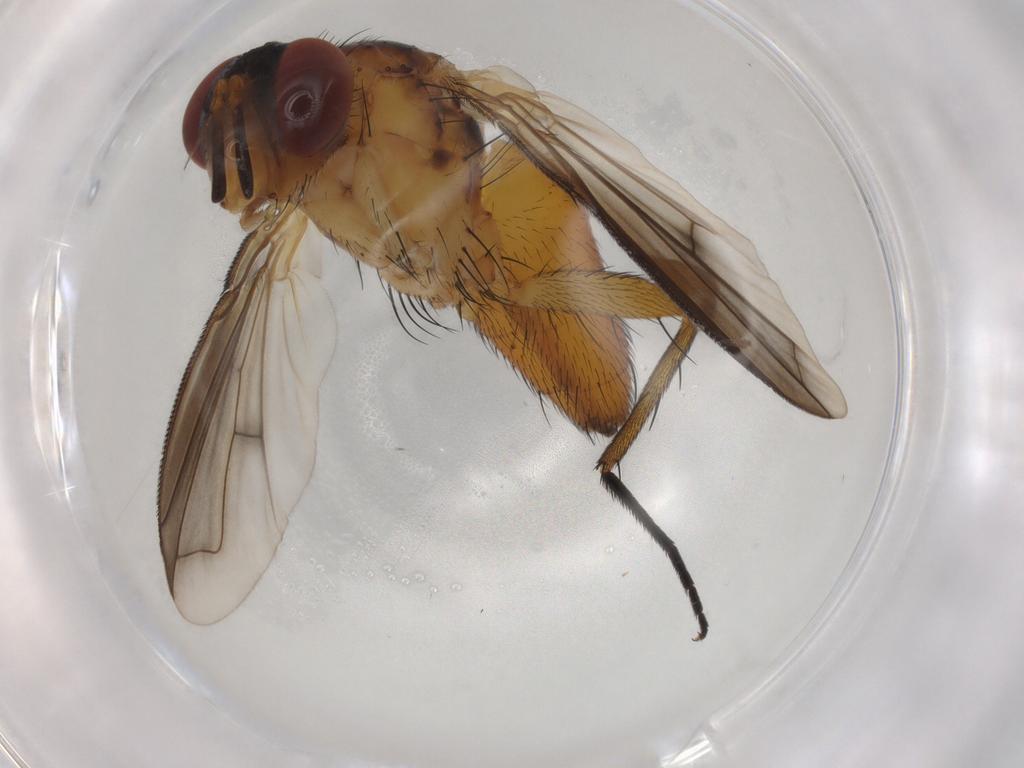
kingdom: Animalia
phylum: Arthropoda
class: Insecta
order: Diptera
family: Tachinidae
